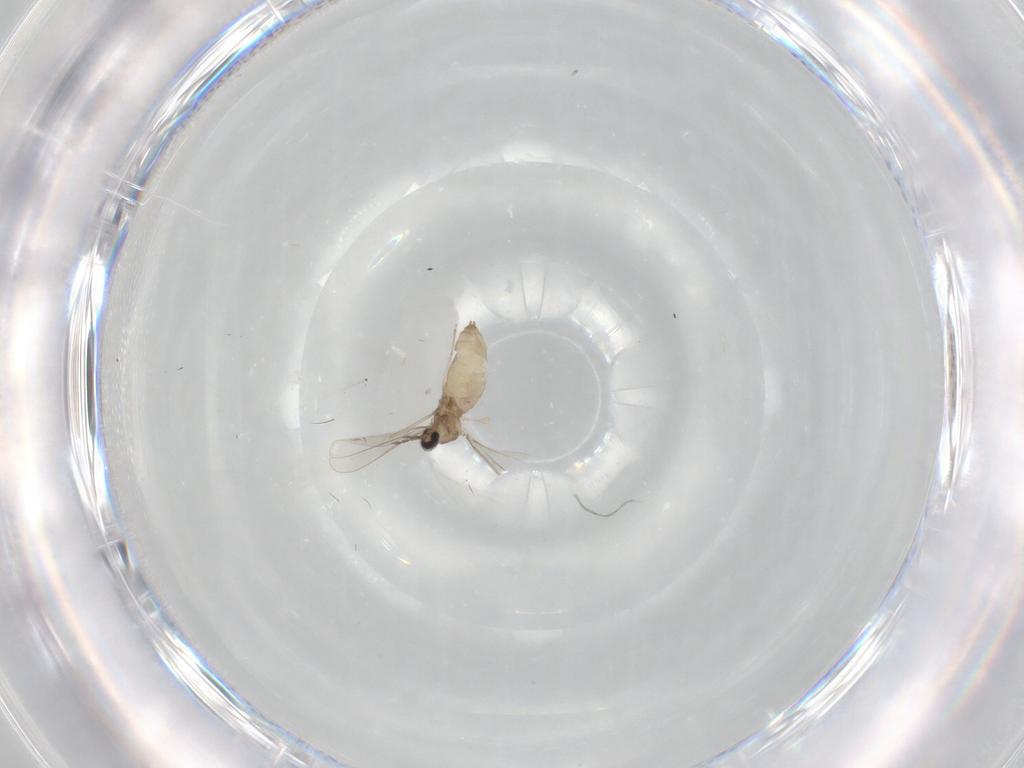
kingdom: Animalia
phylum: Arthropoda
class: Insecta
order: Diptera
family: Cecidomyiidae
